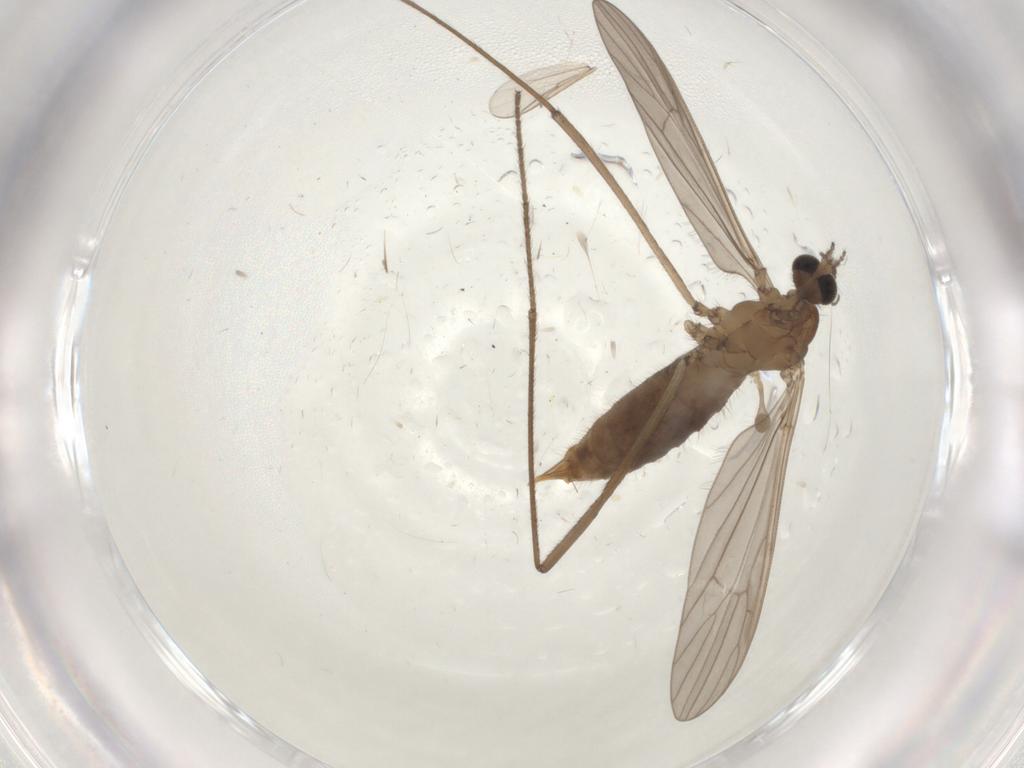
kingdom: Animalia
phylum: Arthropoda
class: Insecta
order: Diptera
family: Limoniidae
